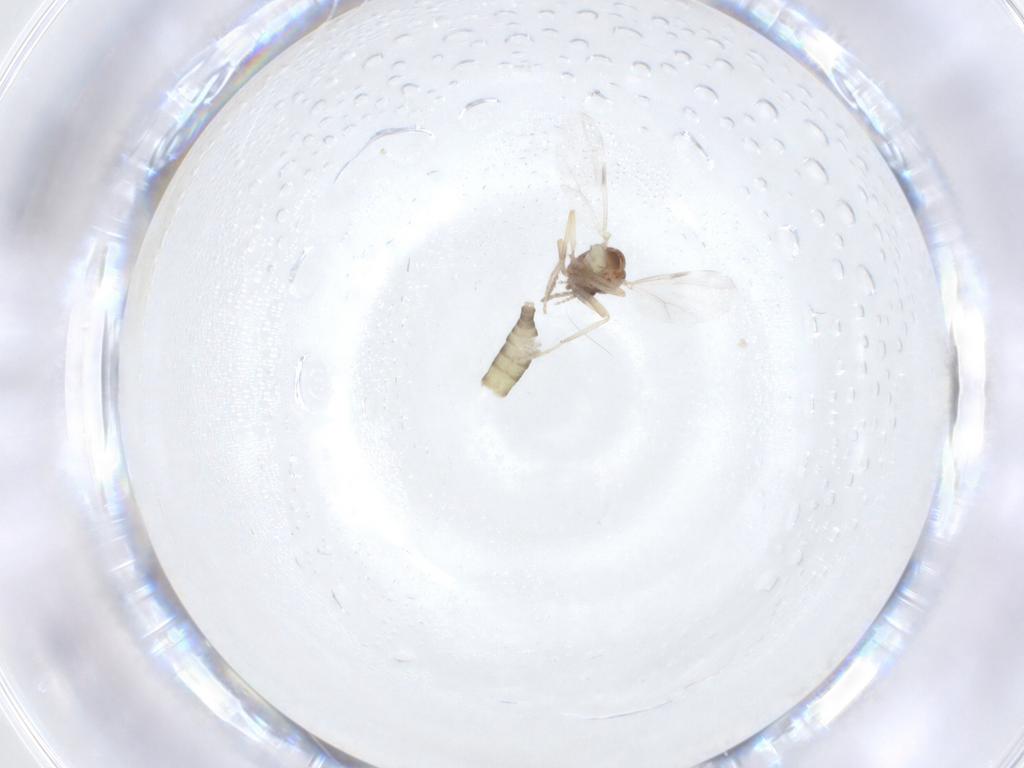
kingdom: Animalia
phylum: Arthropoda
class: Insecta
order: Diptera
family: Ceratopogonidae
